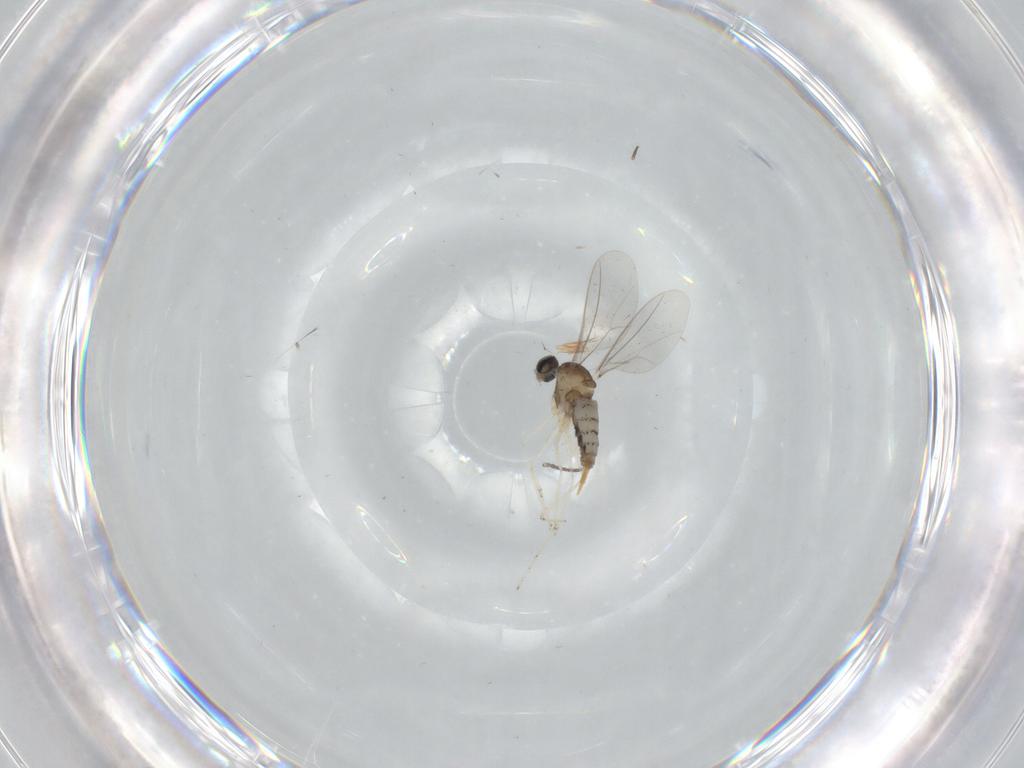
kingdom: Animalia
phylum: Arthropoda
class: Insecta
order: Diptera
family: Cecidomyiidae
